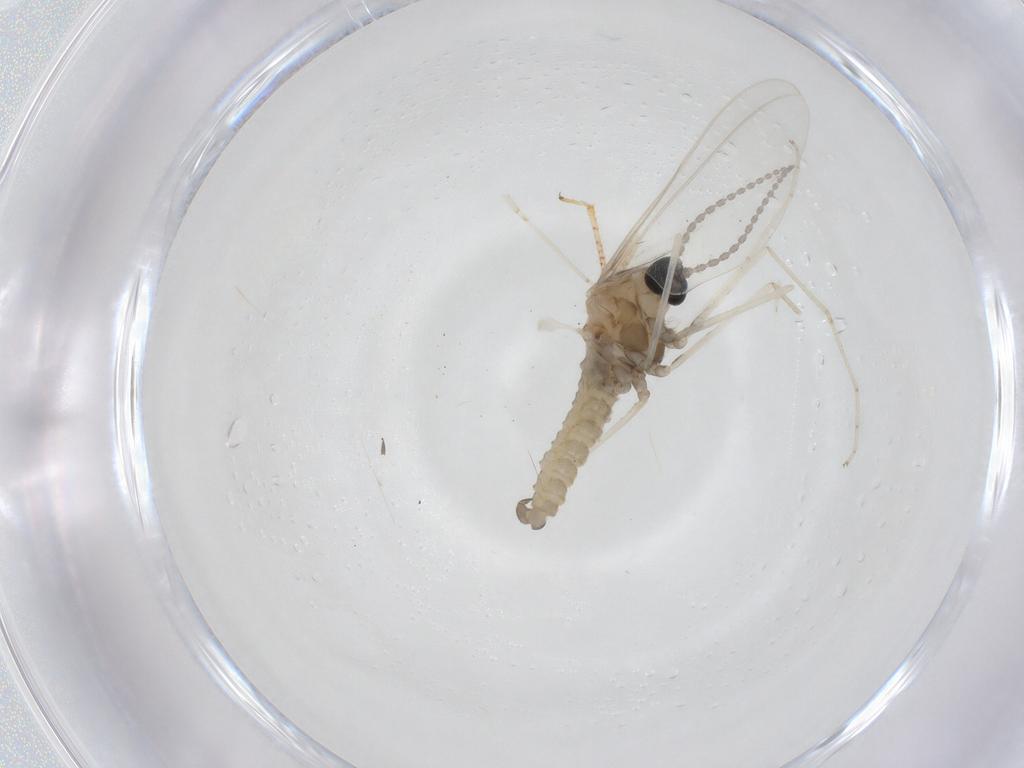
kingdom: Animalia
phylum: Arthropoda
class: Insecta
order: Diptera
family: Cecidomyiidae
